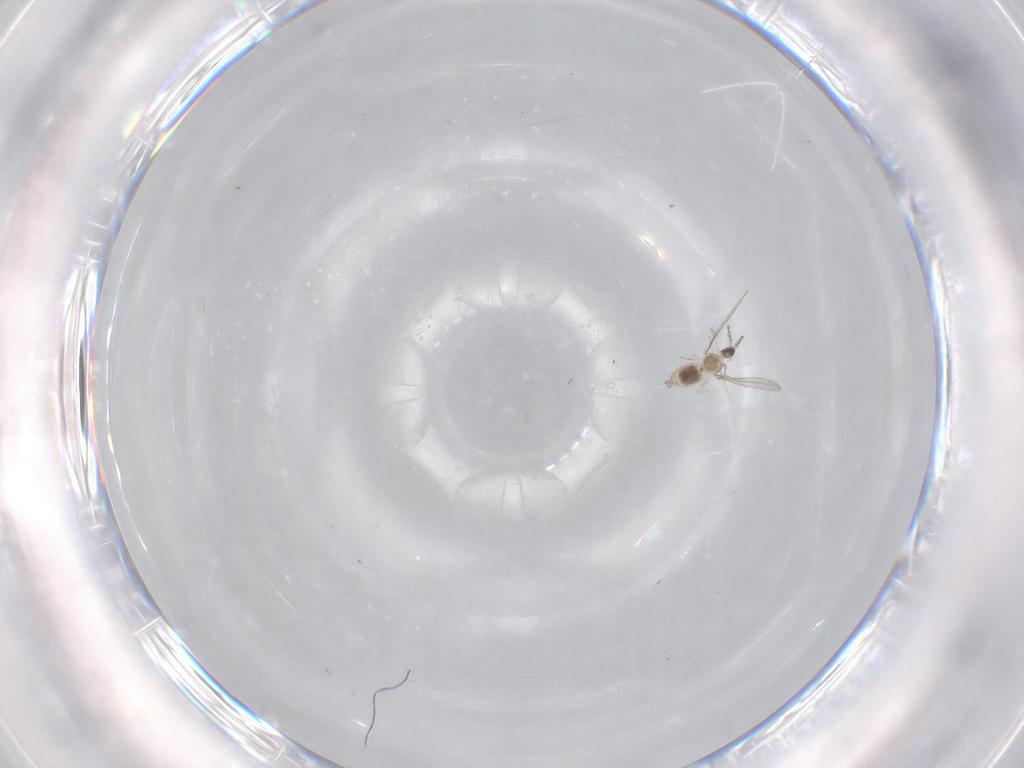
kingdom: Animalia
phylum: Arthropoda
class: Insecta
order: Diptera
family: Cecidomyiidae
